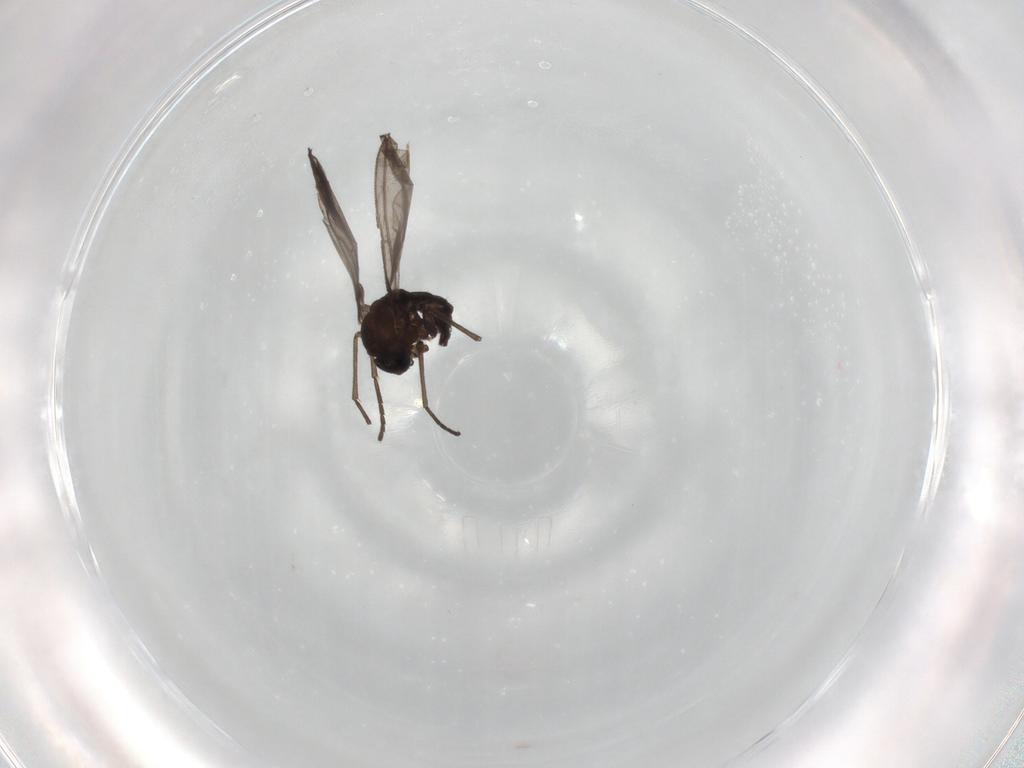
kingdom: Animalia
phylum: Arthropoda
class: Insecta
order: Diptera
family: Sciaridae
